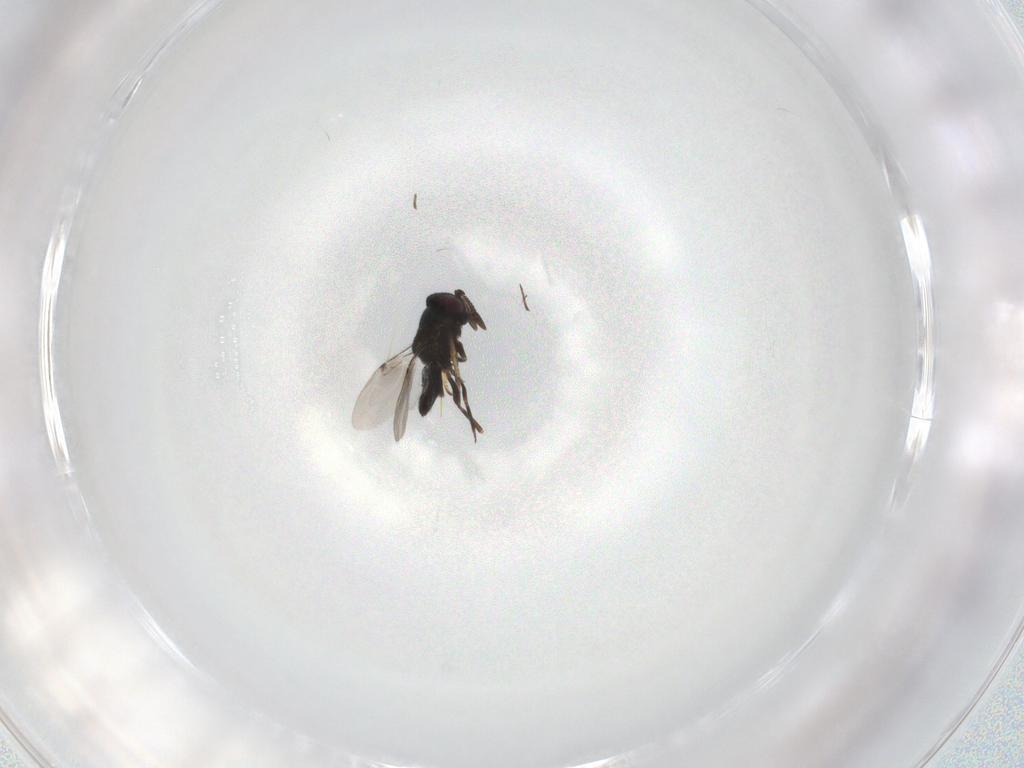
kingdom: Animalia
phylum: Arthropoda
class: Insecta
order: Hymenoptera
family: Encyrtidae
